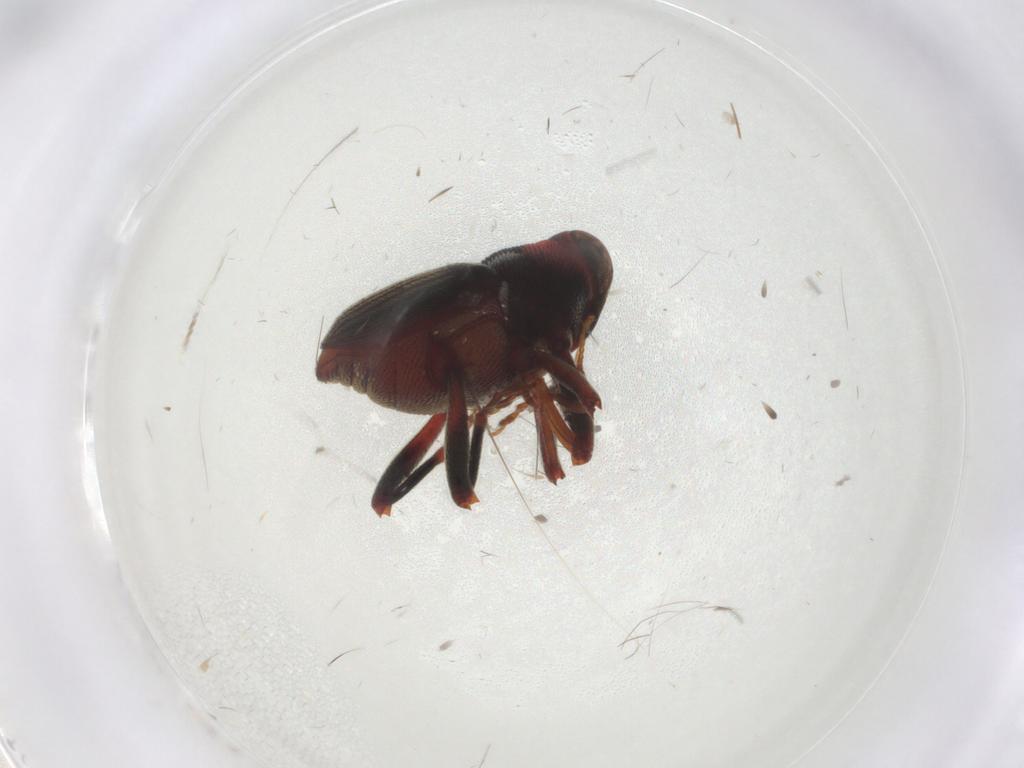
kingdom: Animalia
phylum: Arthropoda
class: Insecta
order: Coleoptera
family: Curculionidae
